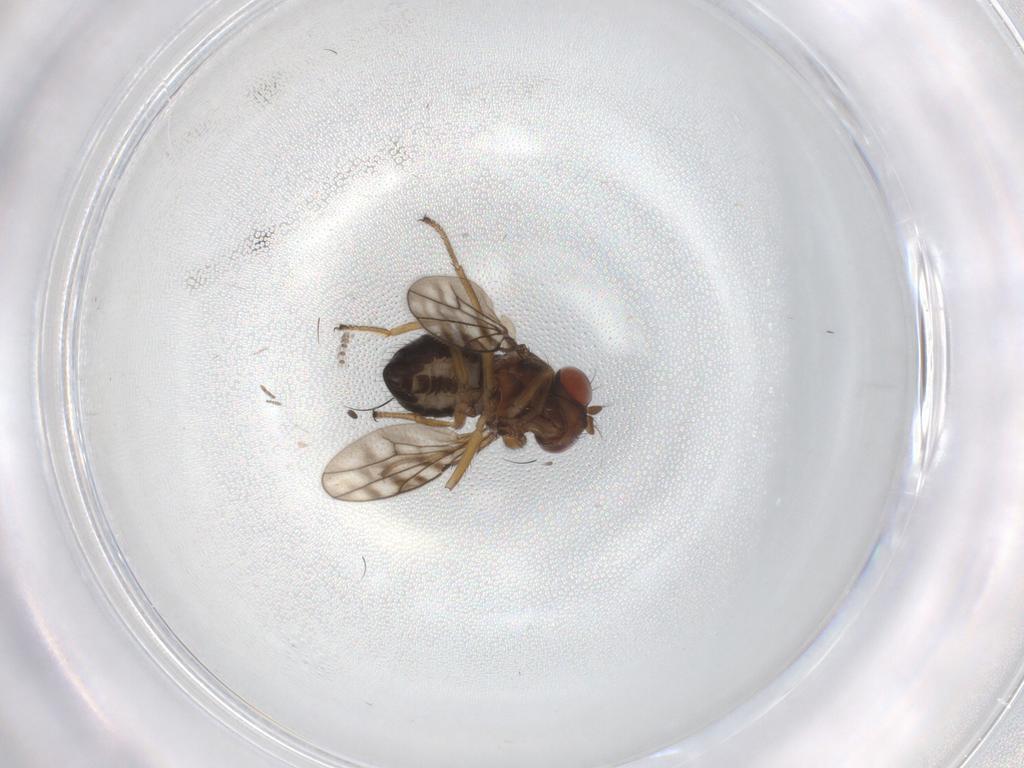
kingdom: Animalia
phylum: Arthropoda
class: Insecta
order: Diptera
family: Ephydridae
